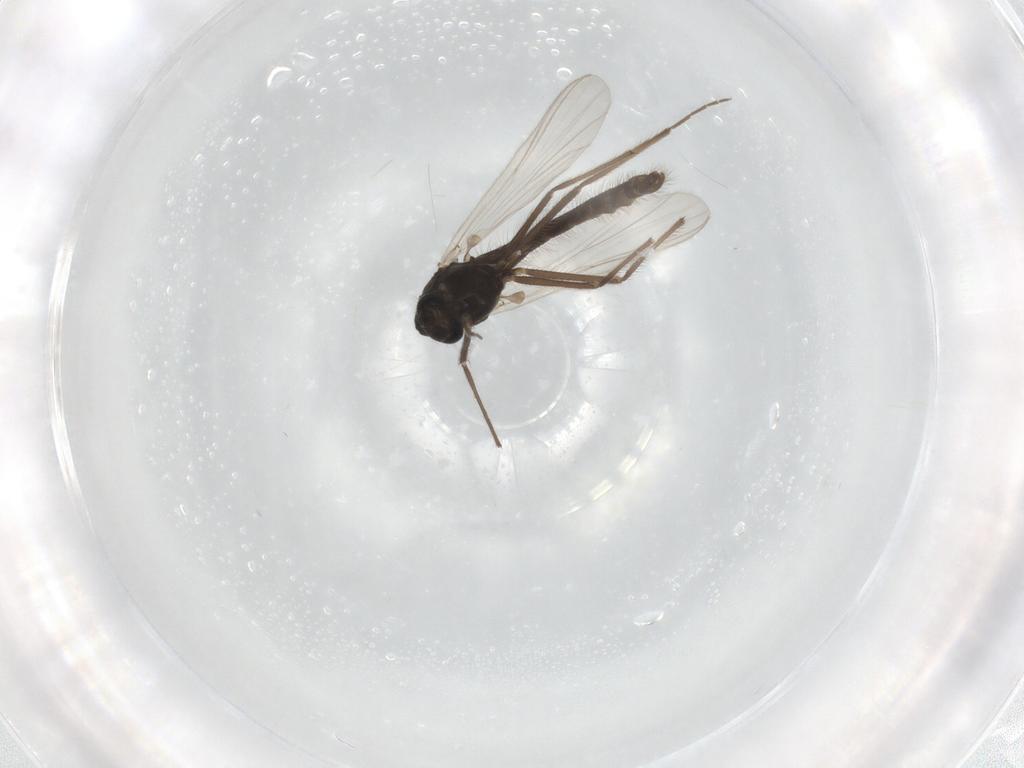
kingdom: Animalia
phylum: Arthropoda
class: Insecta
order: Diptera
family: Chironomidae
